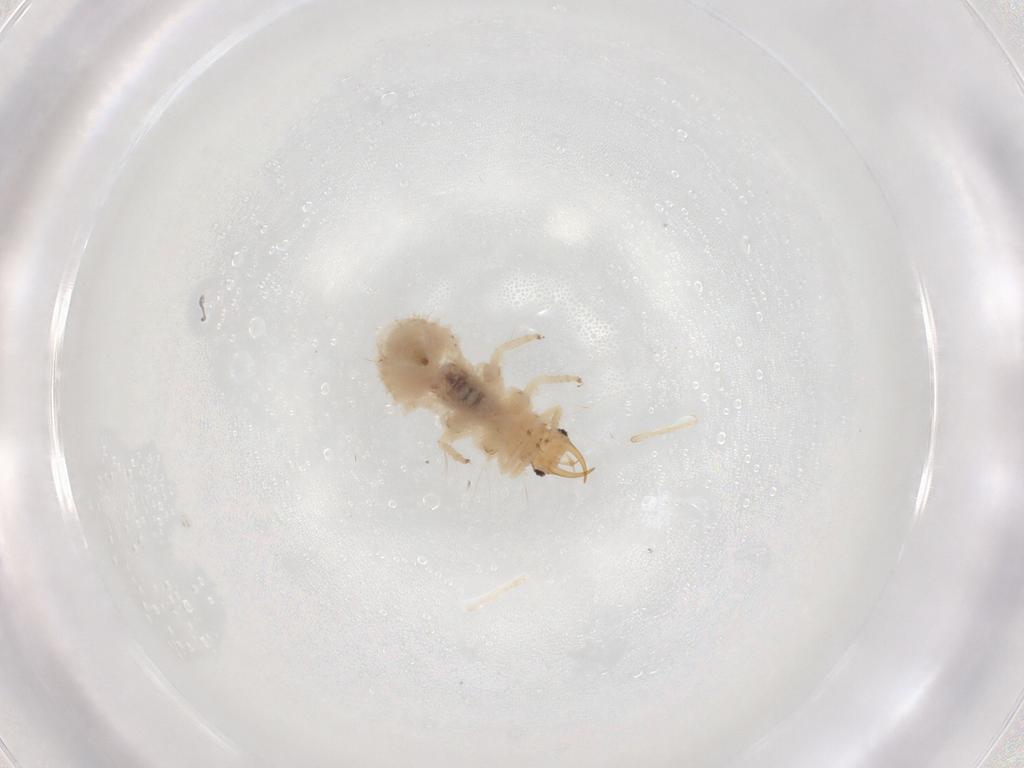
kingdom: Animalia
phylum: Arthropoda
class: Insecta
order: Neuroptera
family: Chrysopidae
